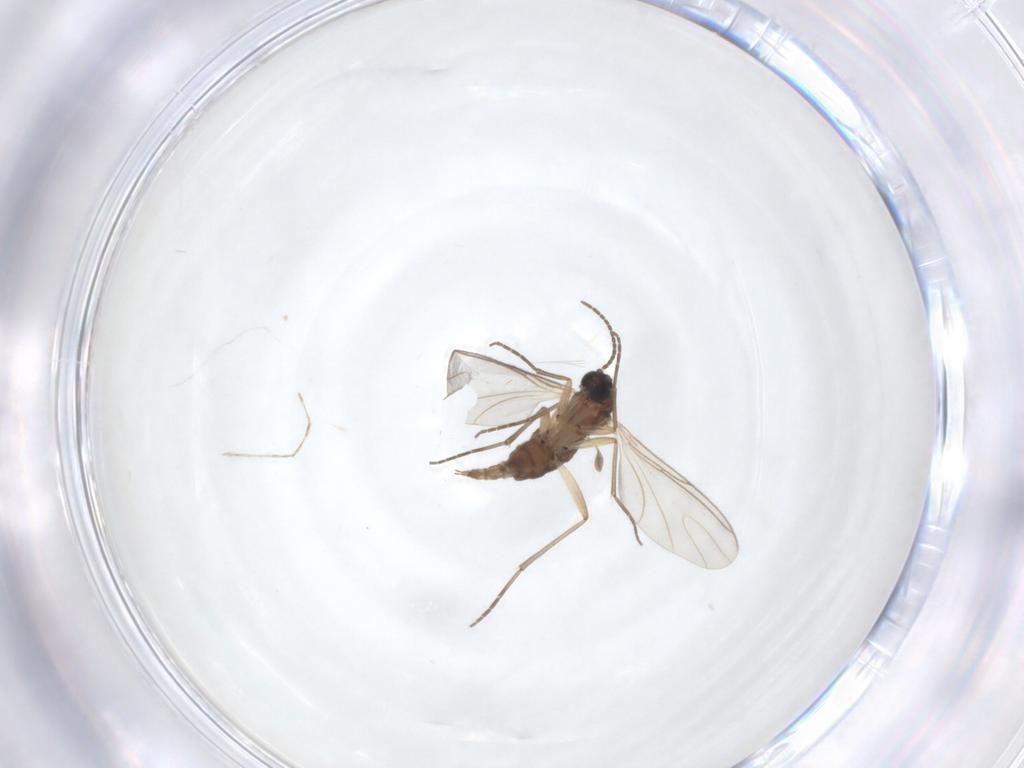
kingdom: Animalia
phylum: Arthropoda
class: Insecta
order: Diptera
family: Sciaridae
